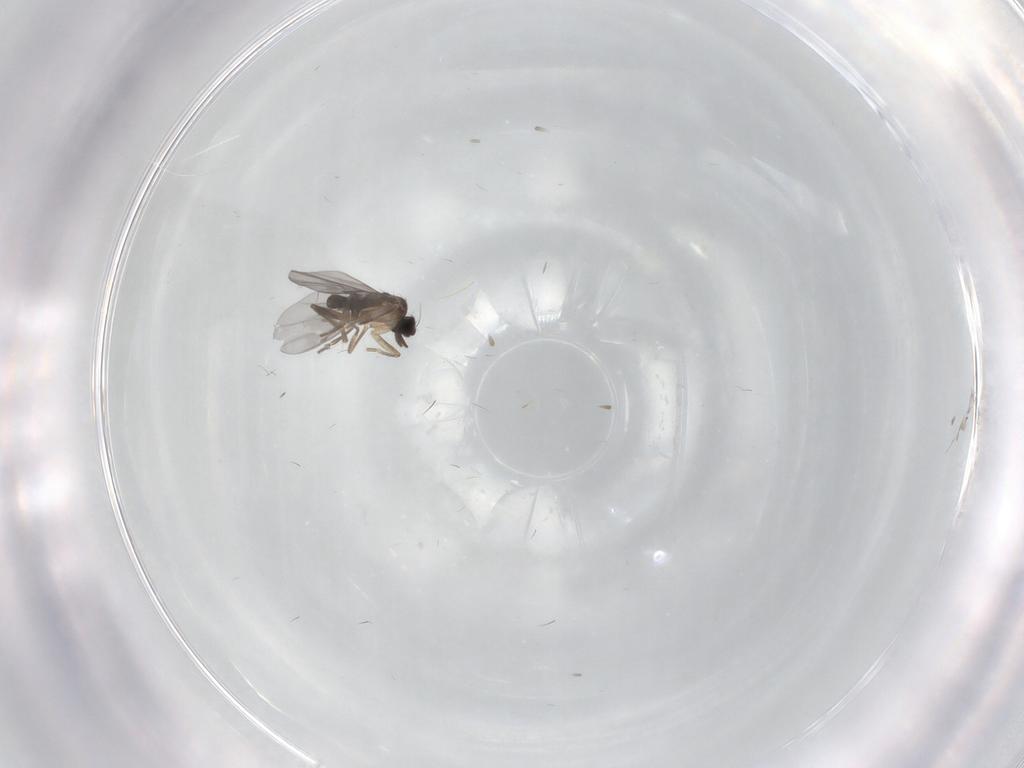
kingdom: Animalia
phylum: Arthropoda
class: Insecta
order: Diptera
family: Cecidomyiidae
